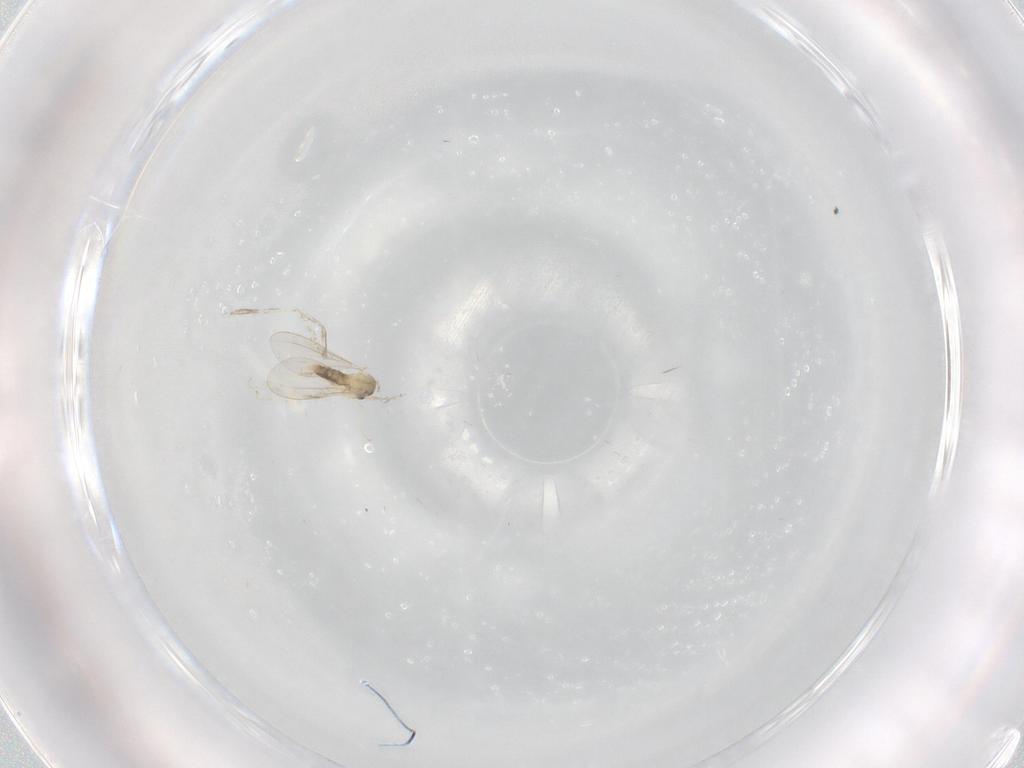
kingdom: Animalia
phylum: Arthropoda
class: Insecta
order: Diptera
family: Cecidomyiidae
